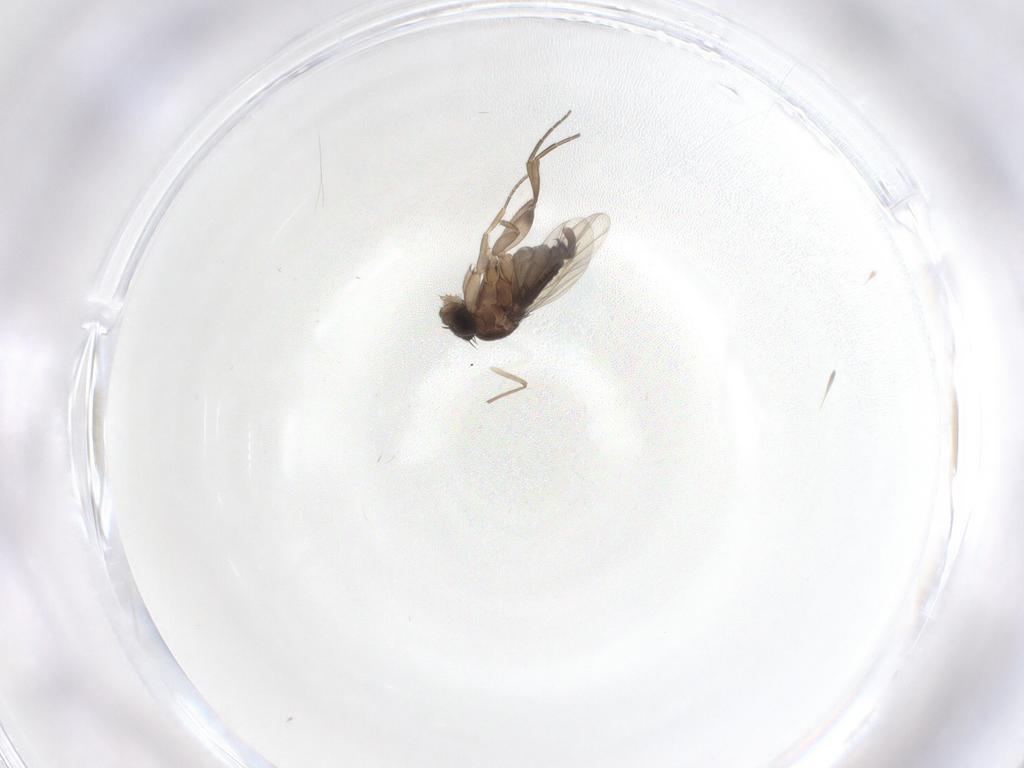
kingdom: Animalia
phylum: Arthropoda
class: Insecta
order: Diptera
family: Phoridae
